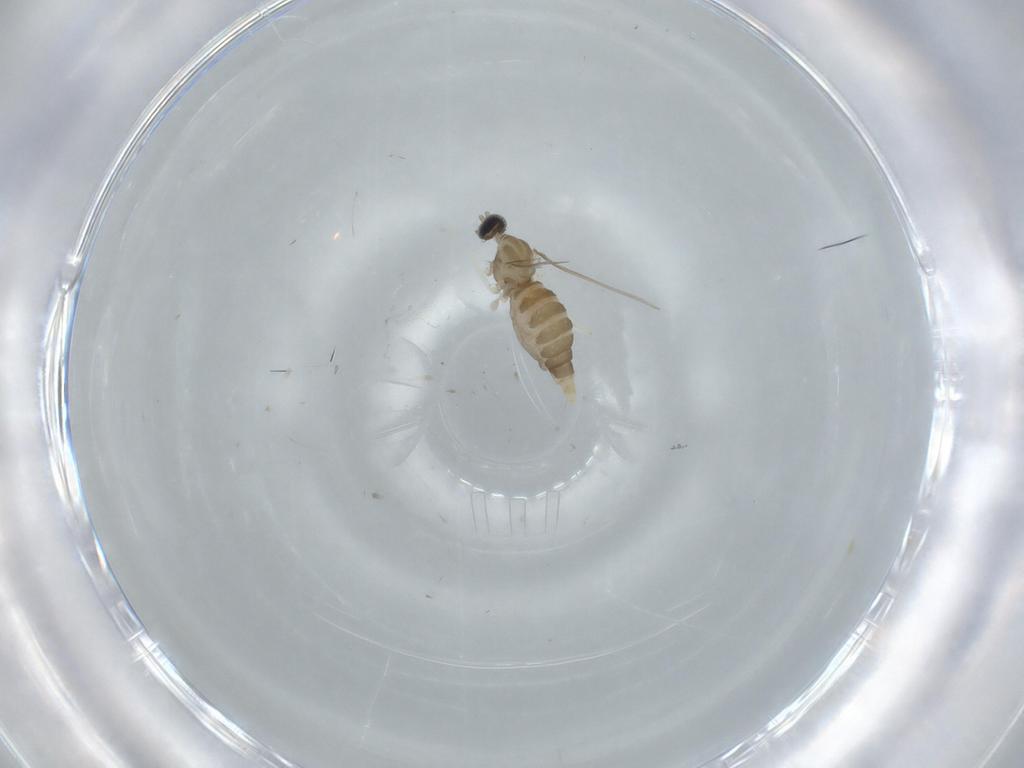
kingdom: Animalia
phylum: Arthropoda
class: Insecta
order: Diptera
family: Cecidomyiidae
